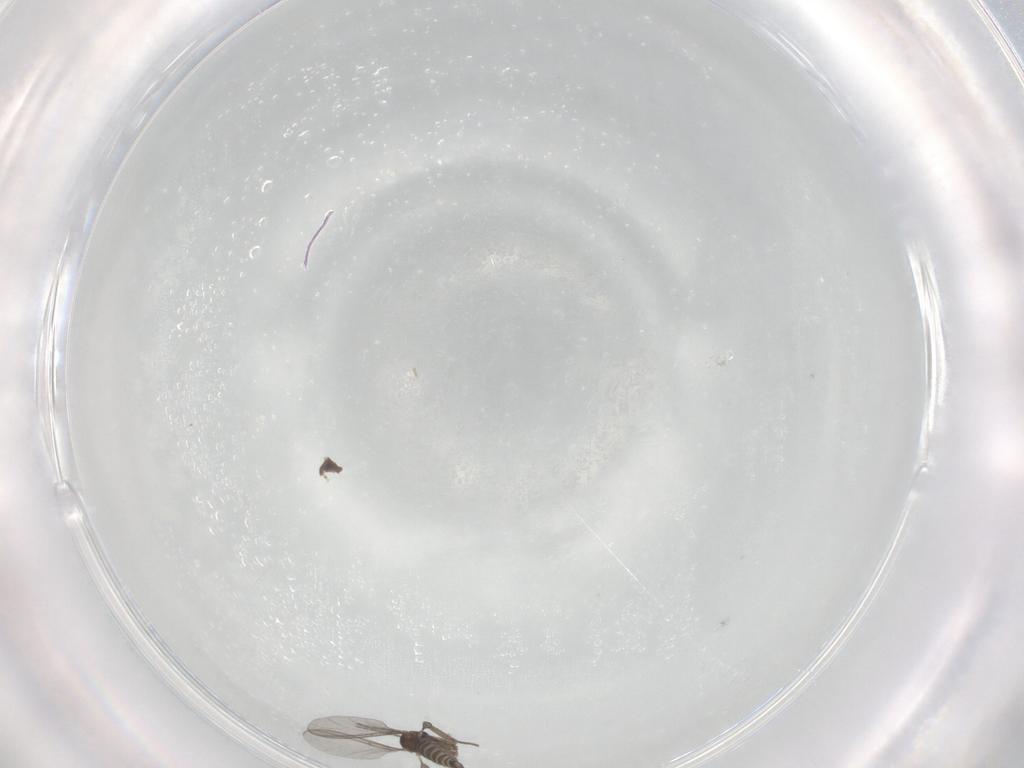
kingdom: Animalia
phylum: Arthropoda
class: Insecta
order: Diptera
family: Sciaridae
